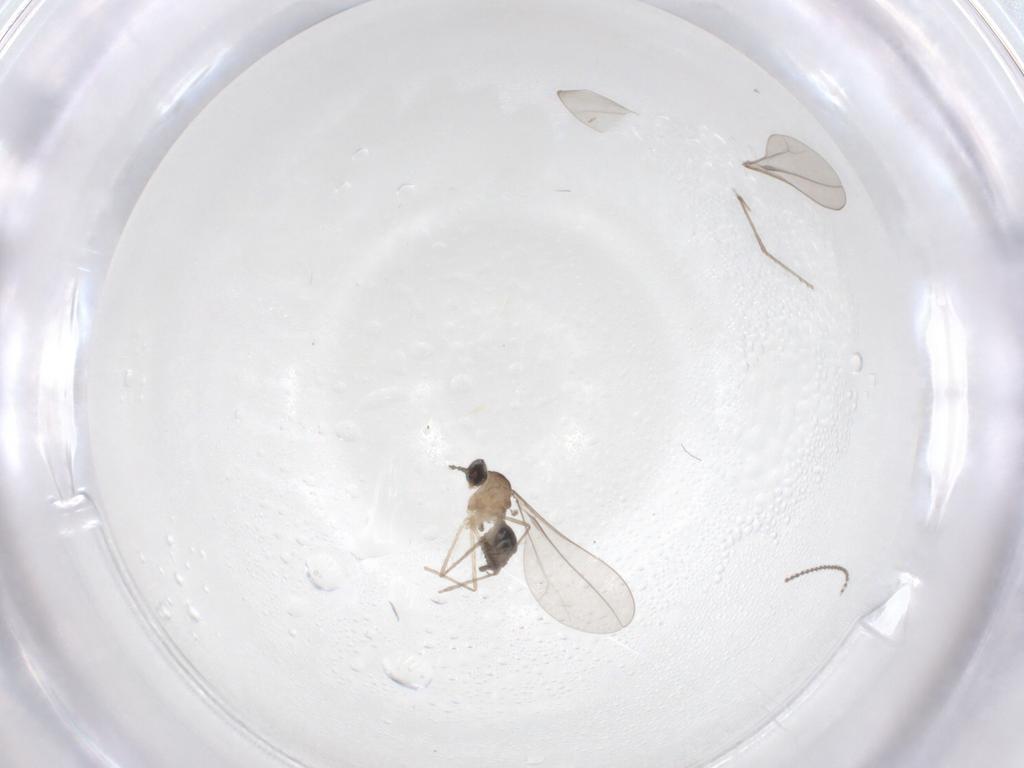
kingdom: Animalia
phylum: Arthropoda
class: Insecta
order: Diptera
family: Cecidomyiidae
